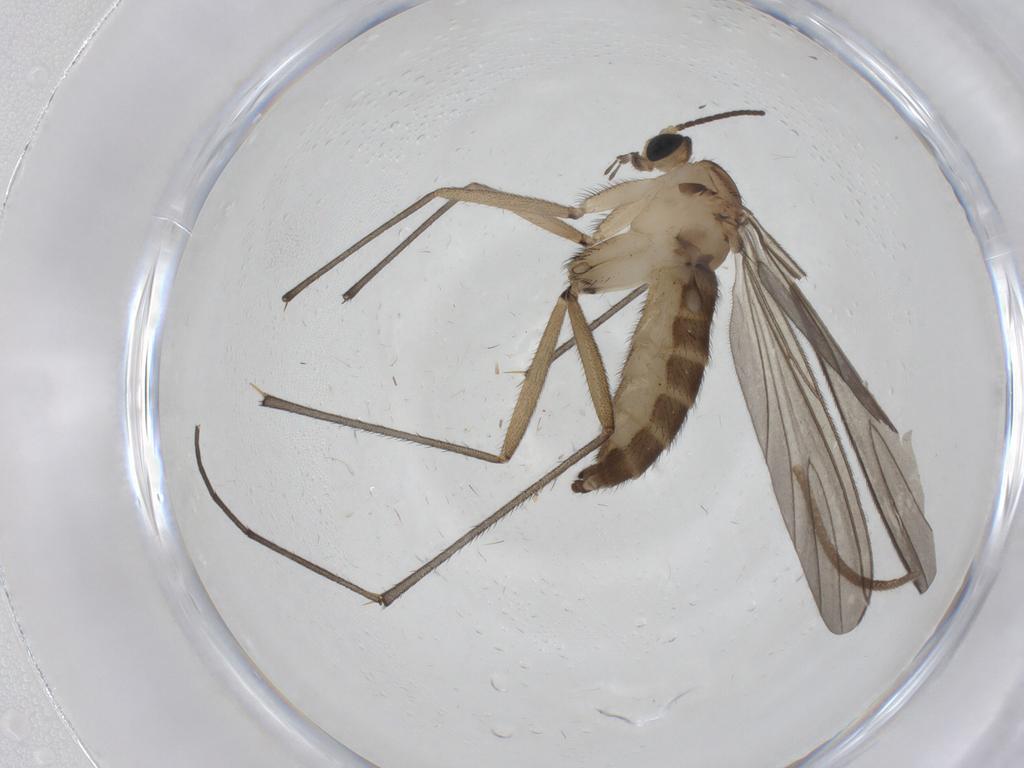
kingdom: Animalia
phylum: Arthropoda
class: Insecta
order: Diptera
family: Sciaridae
